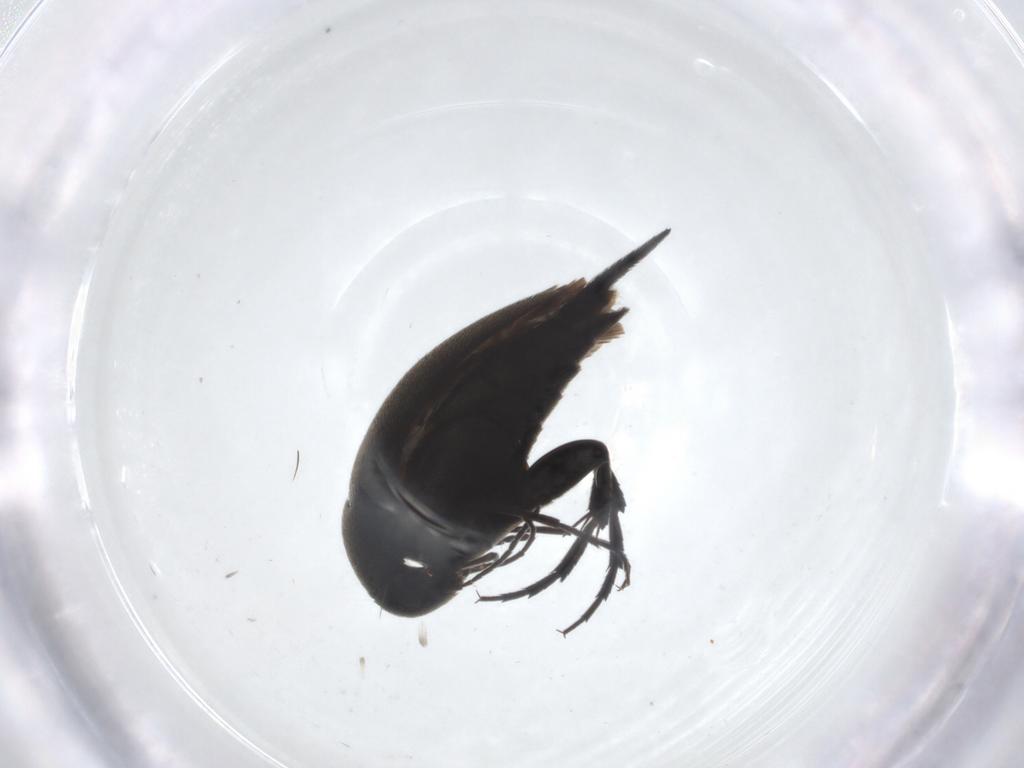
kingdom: Animalia
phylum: Arthropoda
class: Insecta
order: Coleoptera
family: Mordellidae
